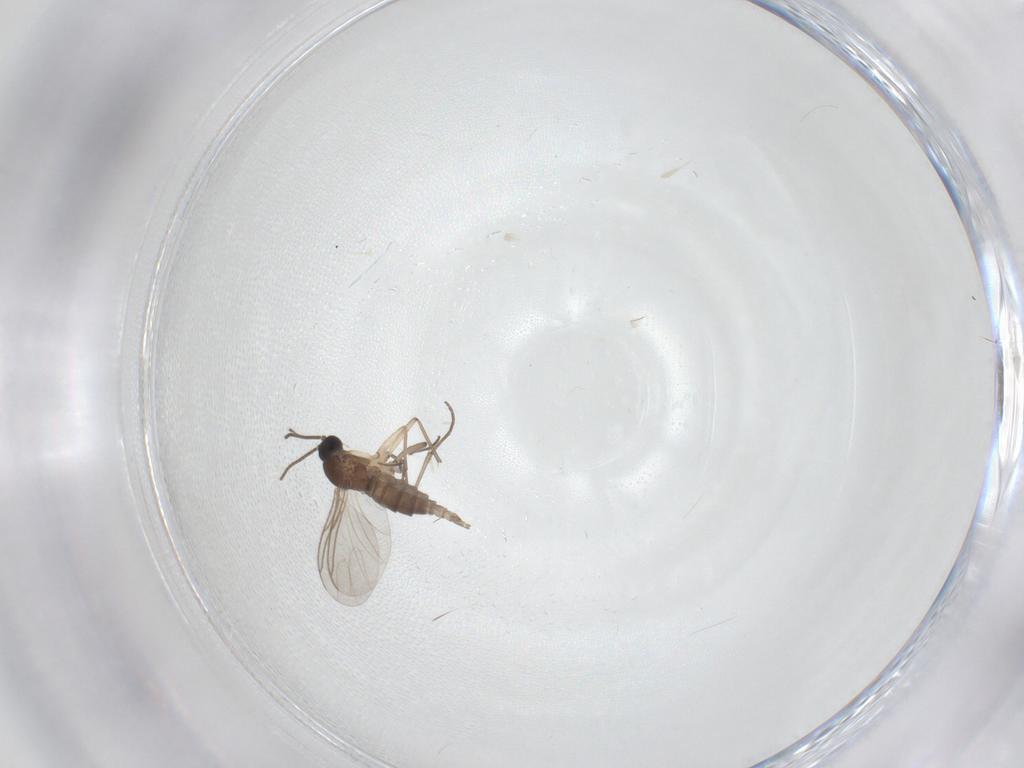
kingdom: Animalia
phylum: Arthropoda
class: Insecta
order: Diptera
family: Sciaridae
